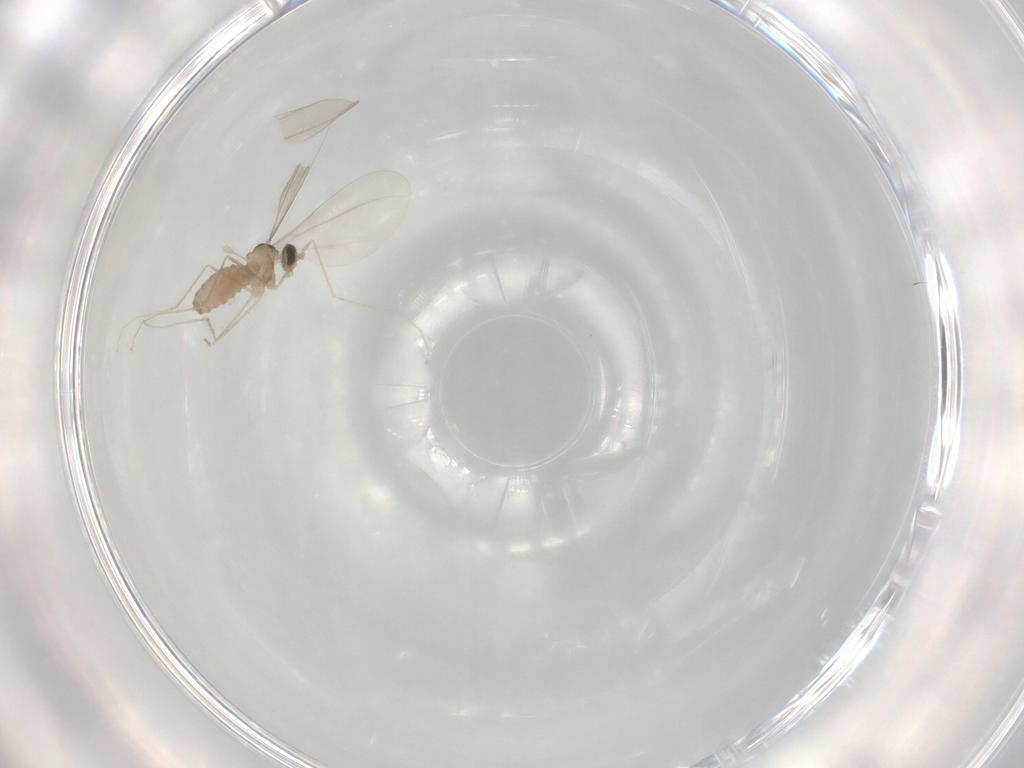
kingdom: Animalia
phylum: Arthropoda
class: Insecta
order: Diptera
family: Cecidomyiidae
